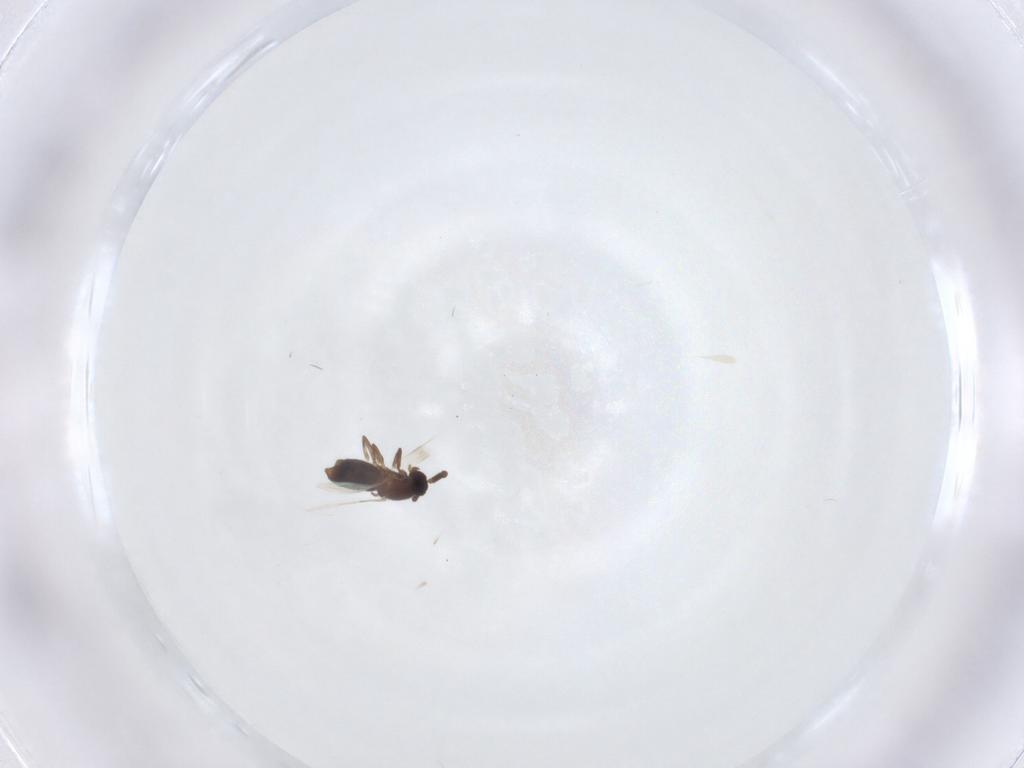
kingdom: Animalia
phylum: Arthropoda
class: Insecta
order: Diptera
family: Scatopsidae
